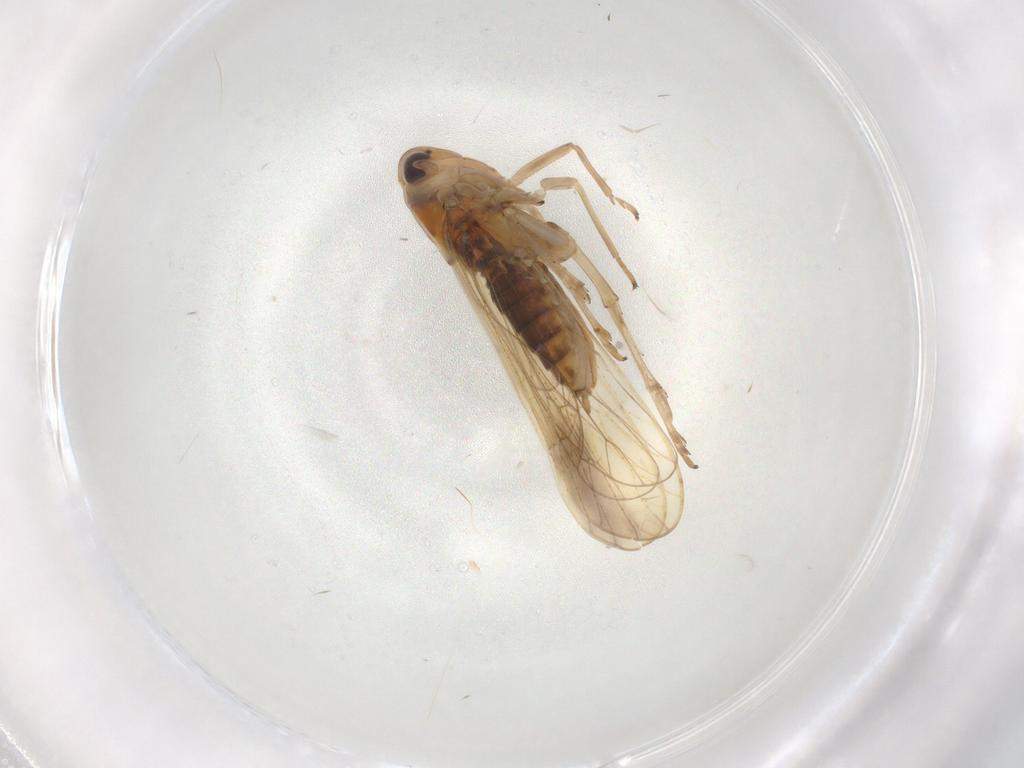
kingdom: Animalia
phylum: Arthropoda
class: Insecta
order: Hemiptera
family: Delphacidae
